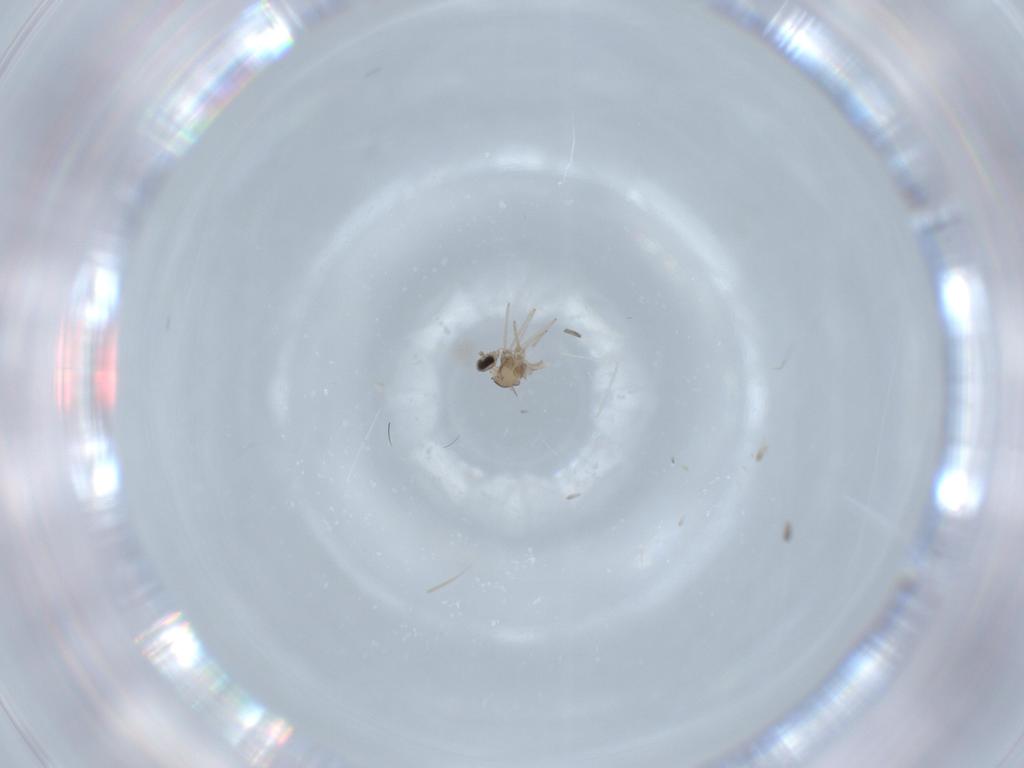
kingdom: Animalia
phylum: Arthropoda
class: Insecta
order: Diptera
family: Cecidomyiidae
